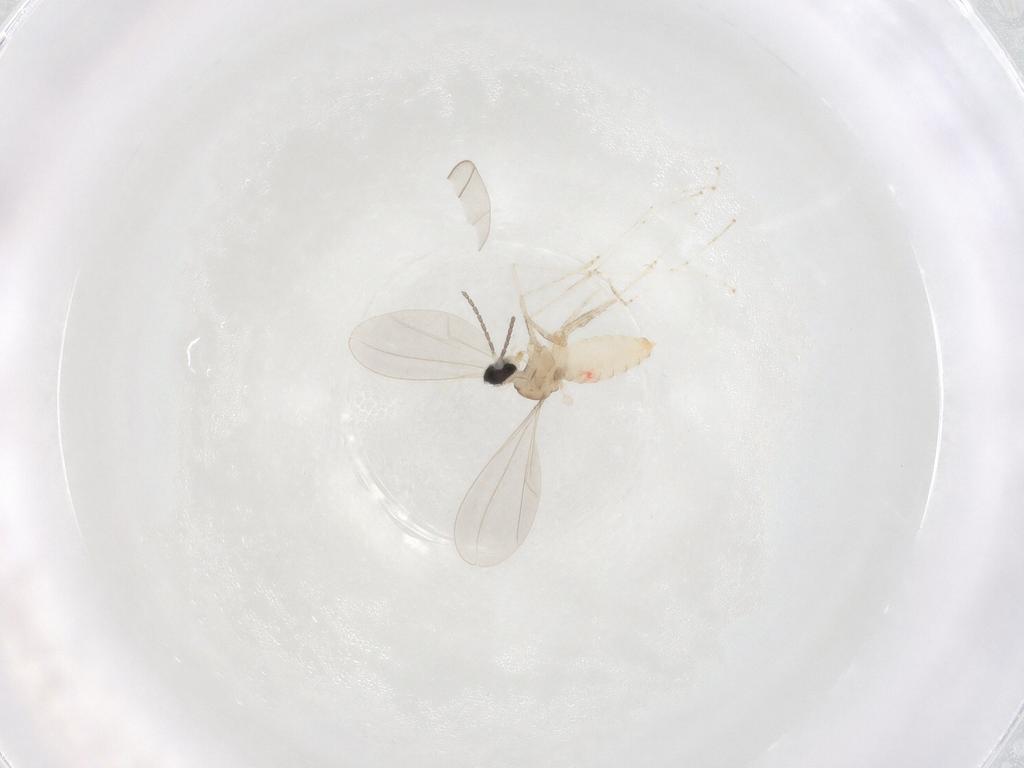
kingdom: Animalia
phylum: Arthropoda
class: Insecta
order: Diptera
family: Cecidomyiidae
